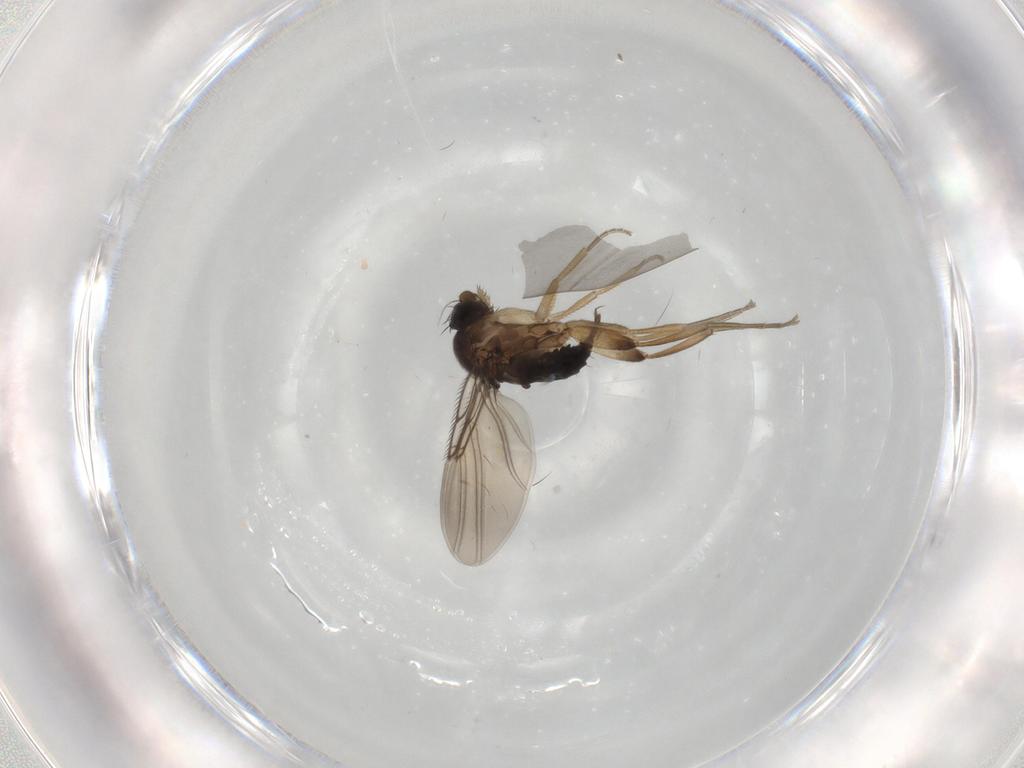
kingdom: Animalia
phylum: Arthropoda
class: Insecta
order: Diptera
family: Phoridae
